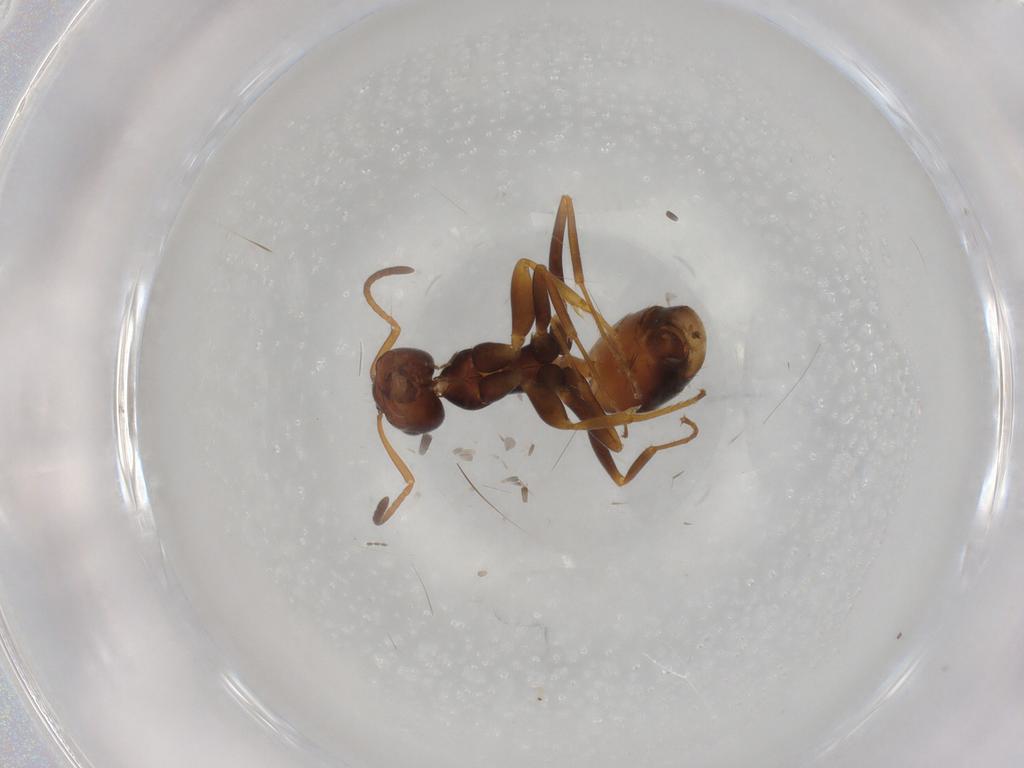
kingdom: Animalia
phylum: Arthropoda
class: Insecta
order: Hymenoptera
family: Formicidae
